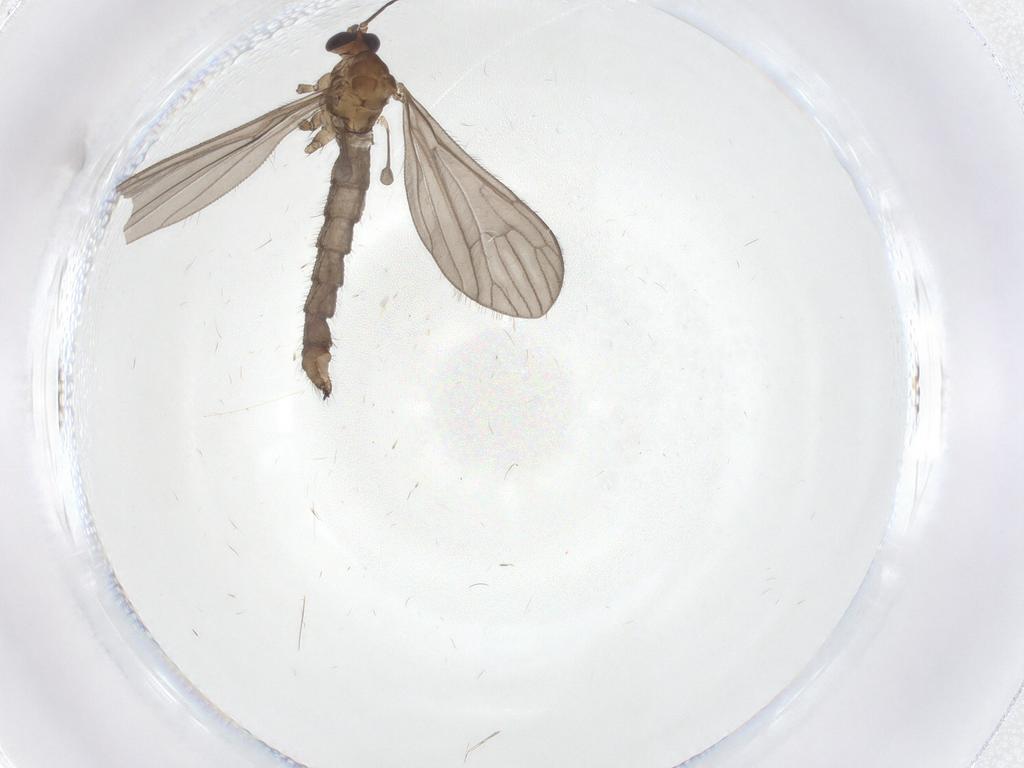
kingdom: Animalia
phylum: Arthropoda
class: Insecta
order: Diptera
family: Limoniidae
